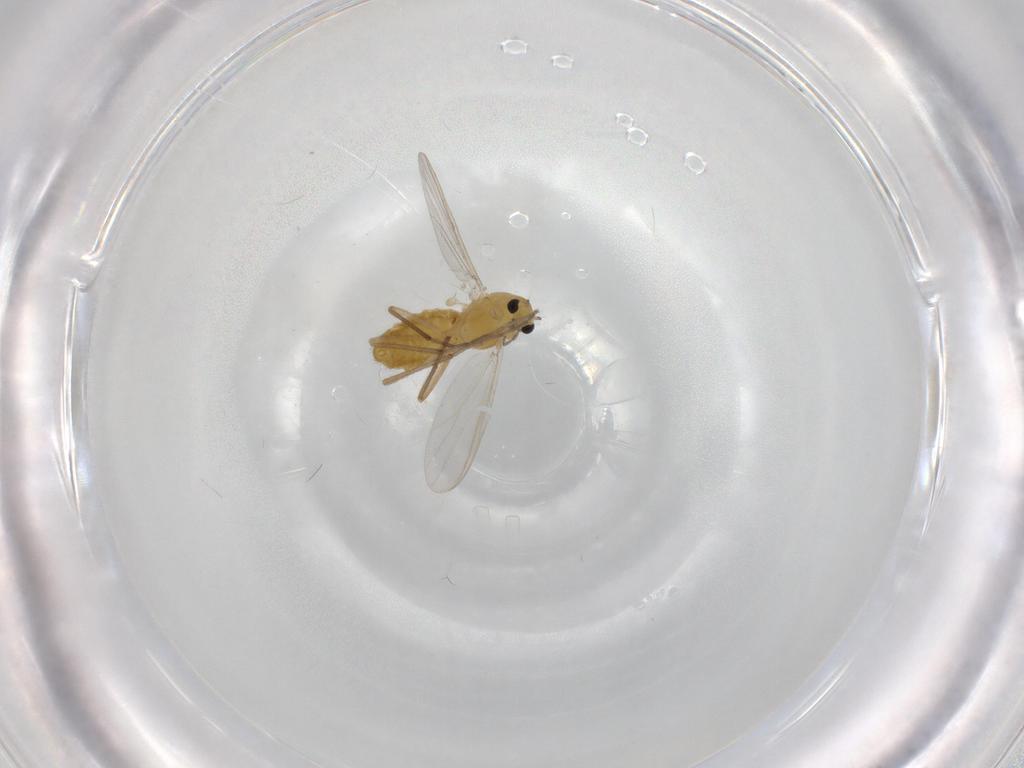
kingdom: Animalia
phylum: Arthropoda
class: Insecta
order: Diptera
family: Chironomidae
